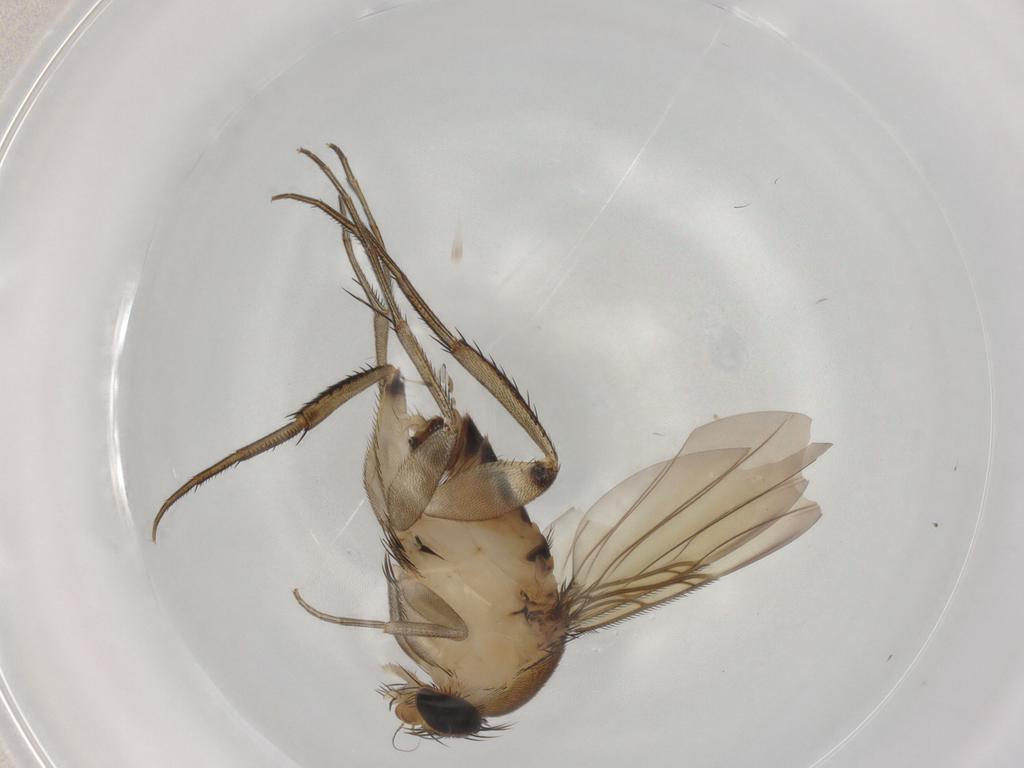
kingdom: Animalia
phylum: Arthropoda
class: Insecta
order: Diptera
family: Phoridae
